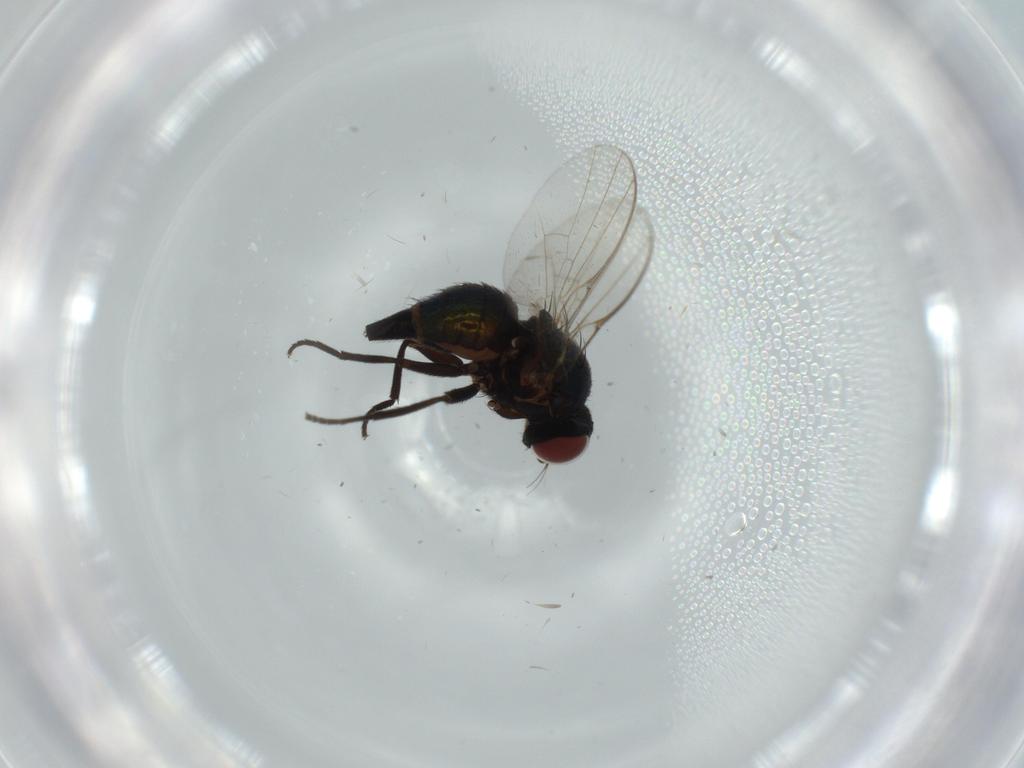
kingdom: Animalia
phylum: Arthropoda
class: Insecta
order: Diptera
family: Agromyzidae
